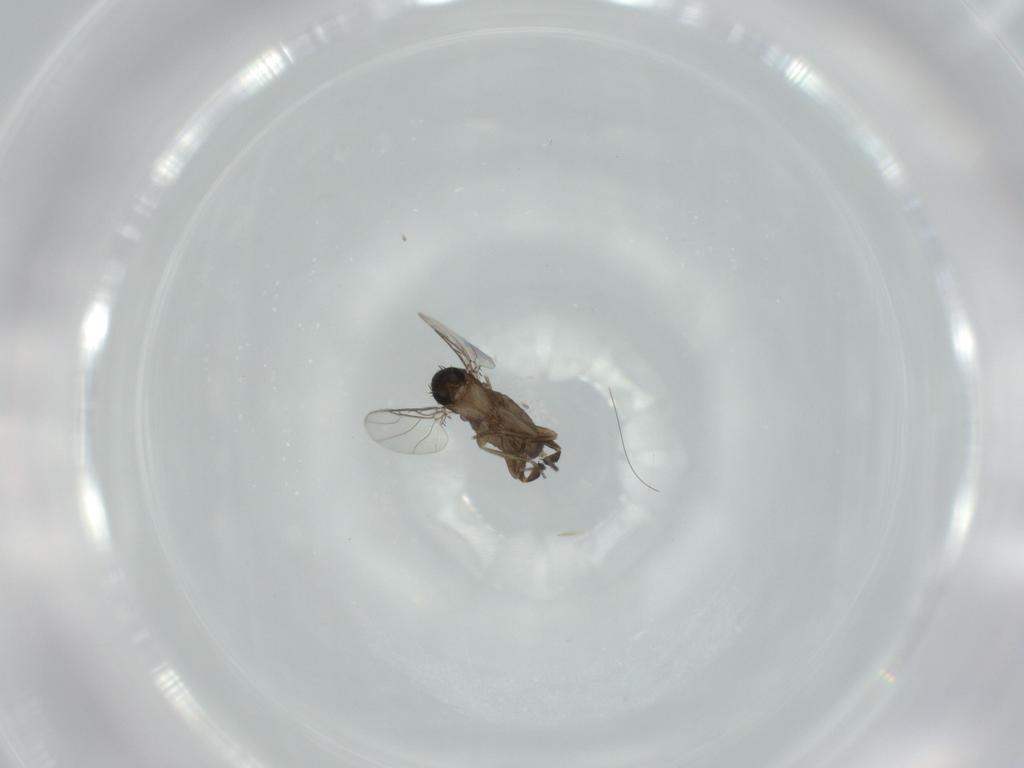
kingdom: Animalia
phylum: Arthropoda
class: Insecta
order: Diptera
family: Phoridae
